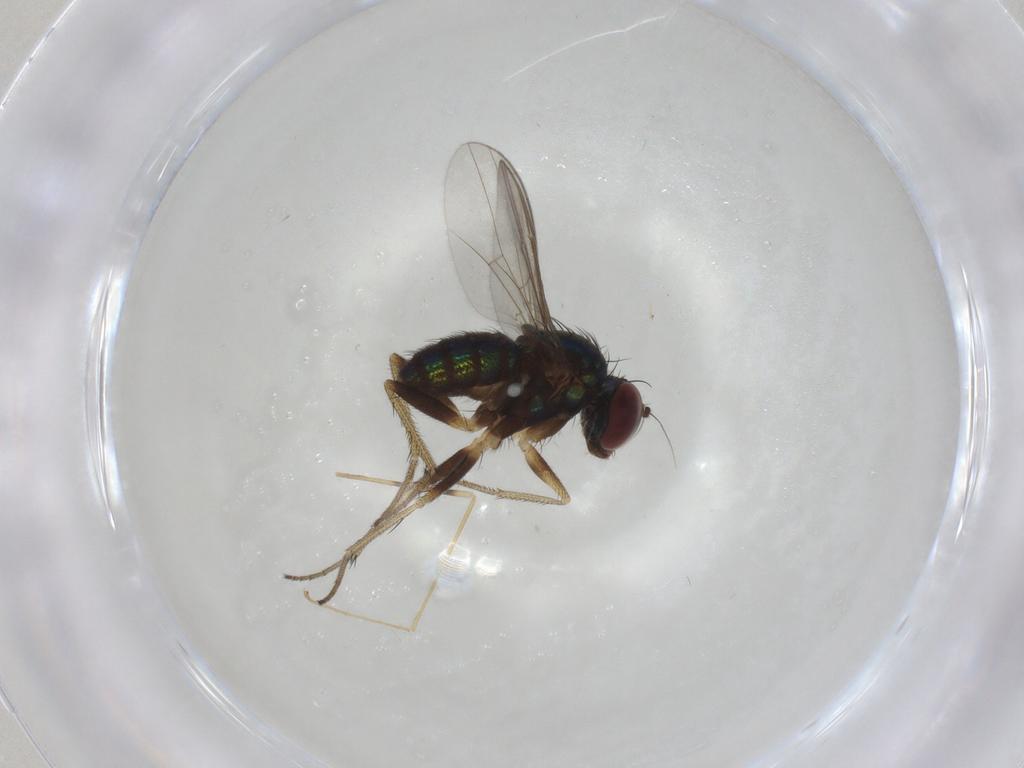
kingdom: Animalia
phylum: Arthropoda
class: Insecta
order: Diptera
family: Dolichopodidae
